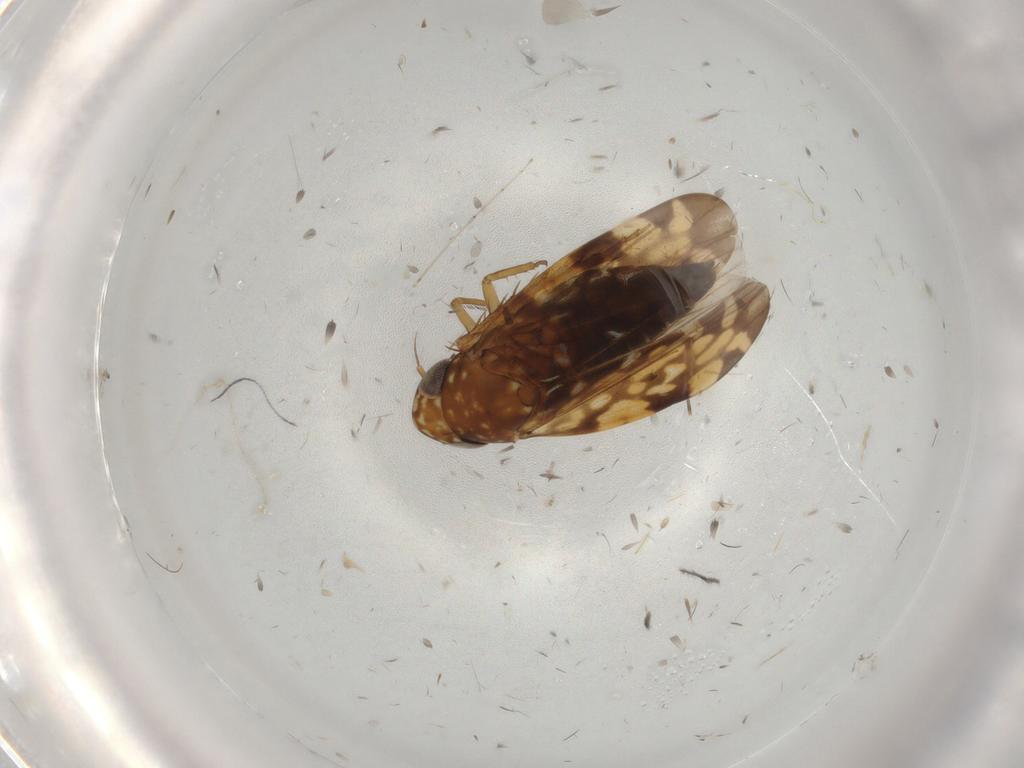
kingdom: Animalia
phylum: Arthropoda
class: Insecta
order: Hemiptera
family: Cicadellidae
